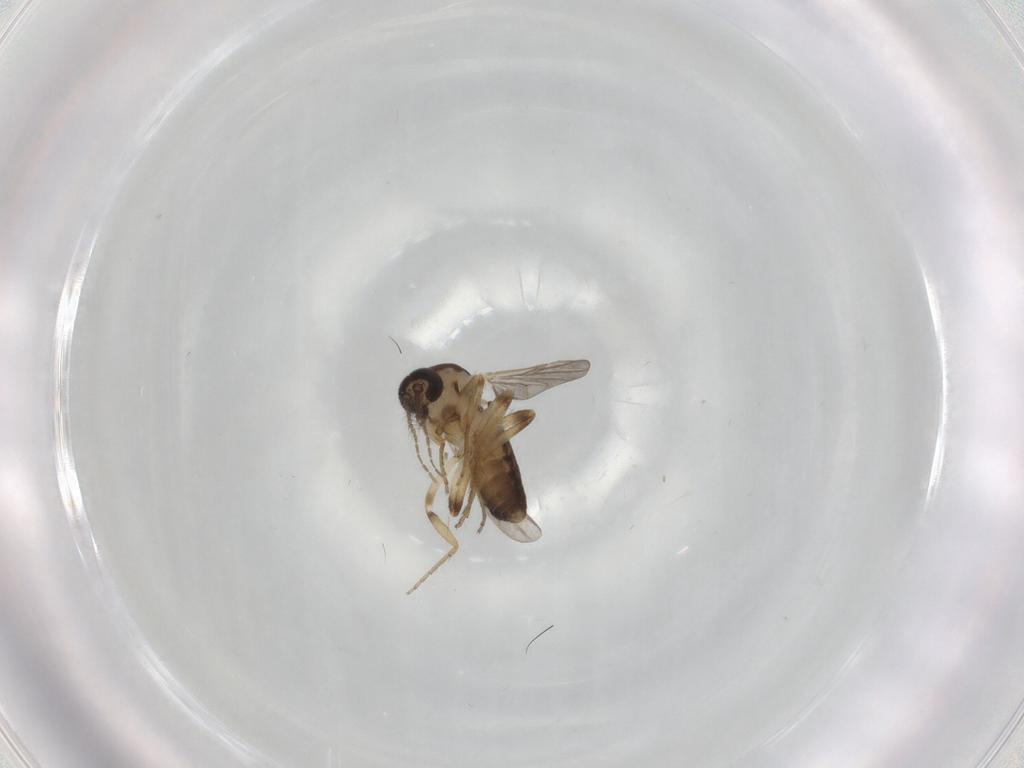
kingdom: Animalia
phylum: Arthropoda
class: Insecta
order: Diptera
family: Ceratopogonidae
